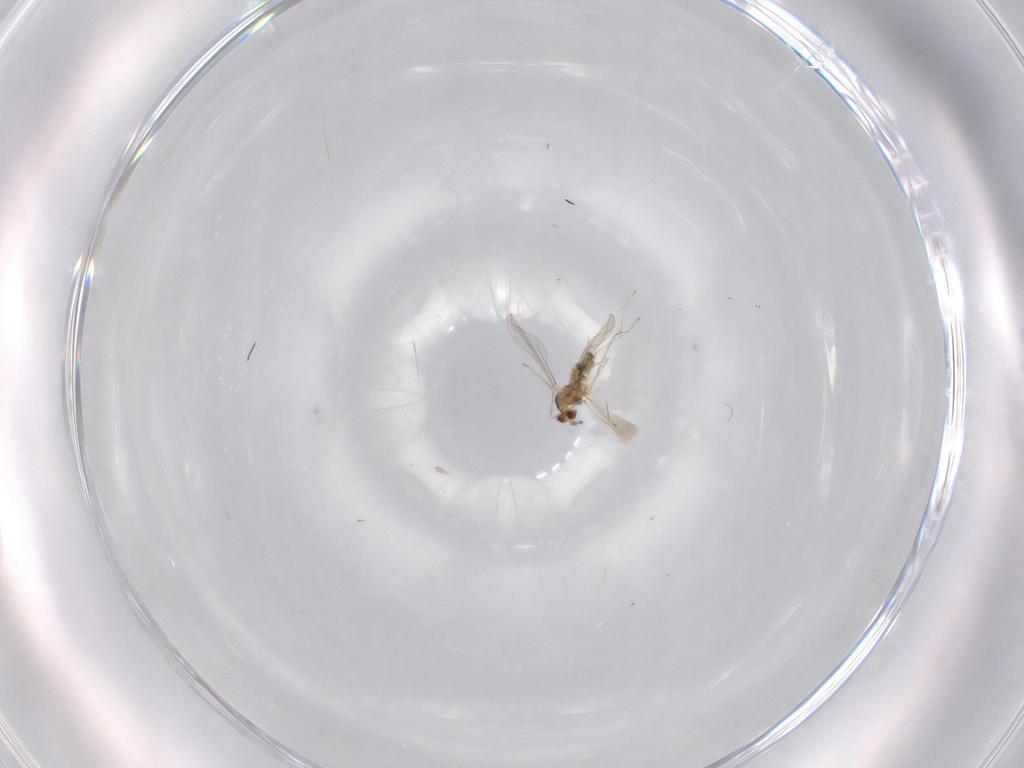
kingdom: Animalia
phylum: Arthropoda
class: Insecta
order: Diptera
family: Cecidomyiidae
